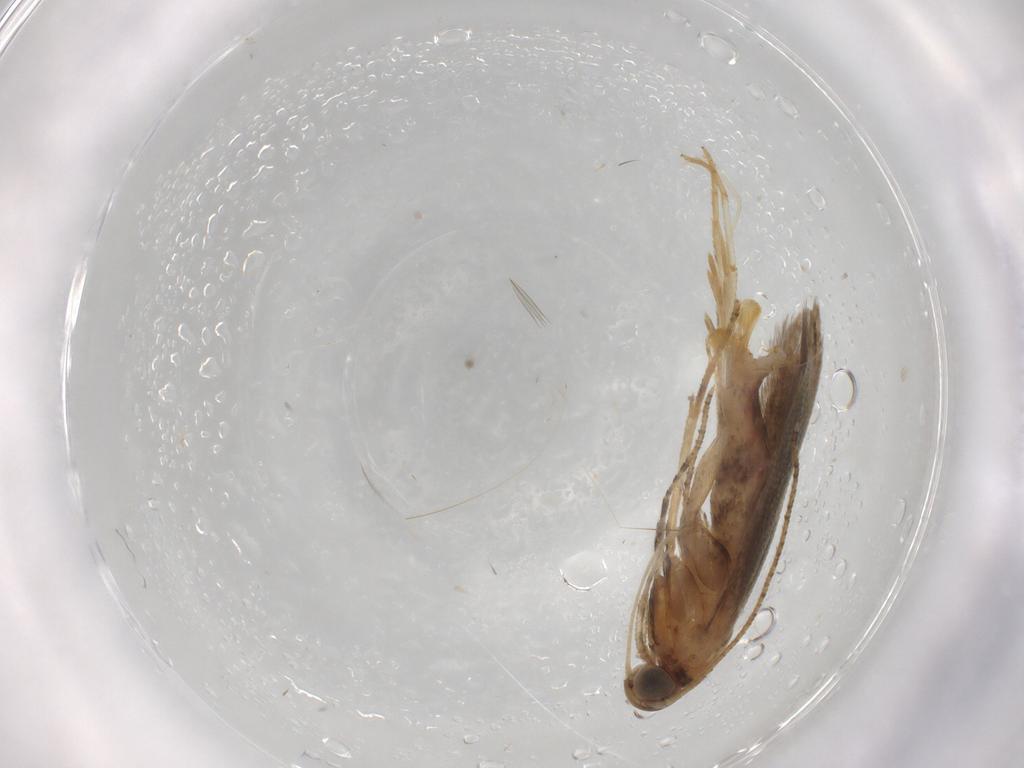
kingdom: Animalia
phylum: Arthropoda
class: Insecta
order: Lepidoptera
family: Plutellidae
